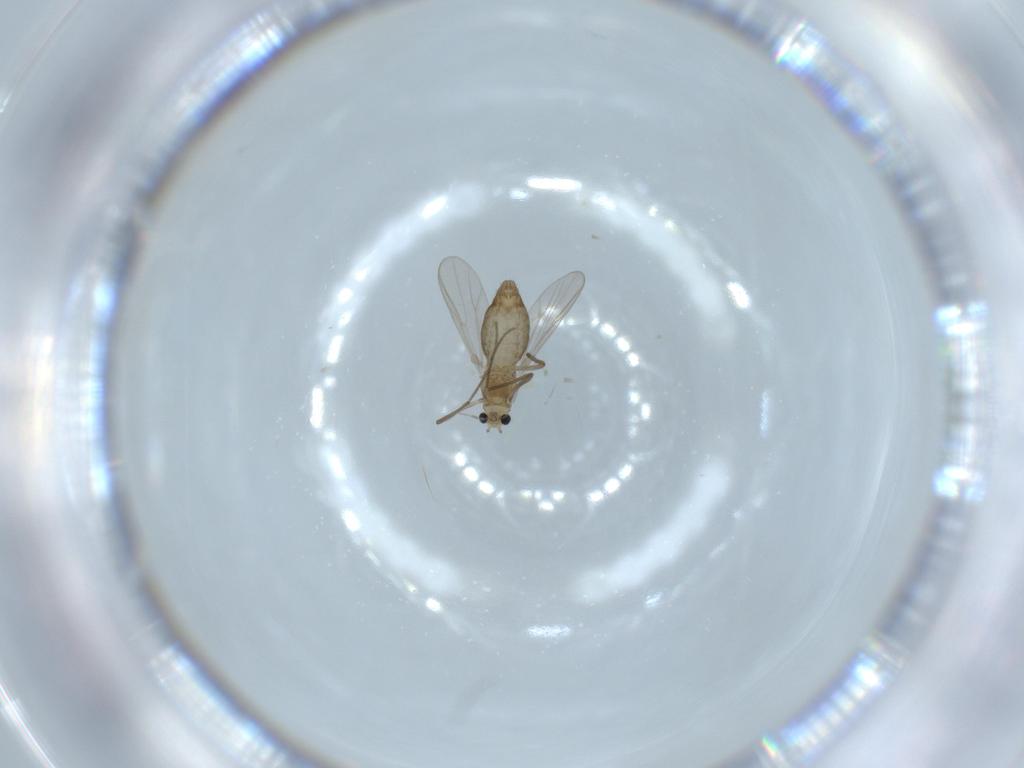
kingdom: Animalia
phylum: Arthropoda
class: Insecta
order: Diptera
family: Chironomidae
